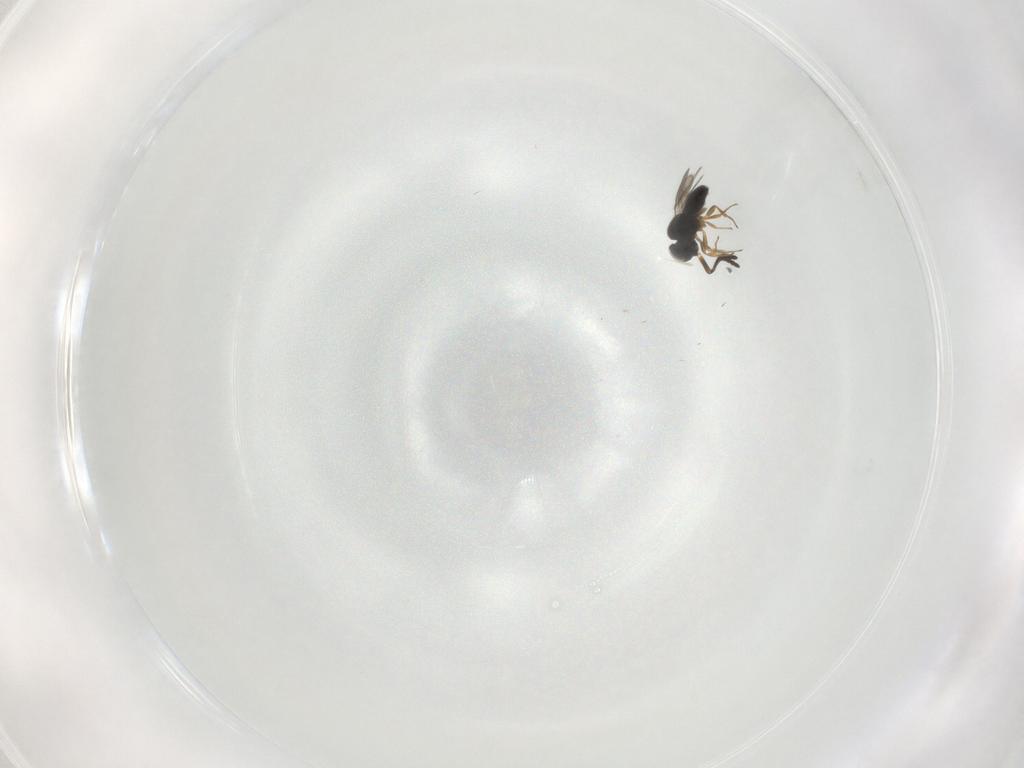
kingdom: Animalia
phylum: Arthropoda
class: Insecta
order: Hymenoptera
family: Scelionidae
